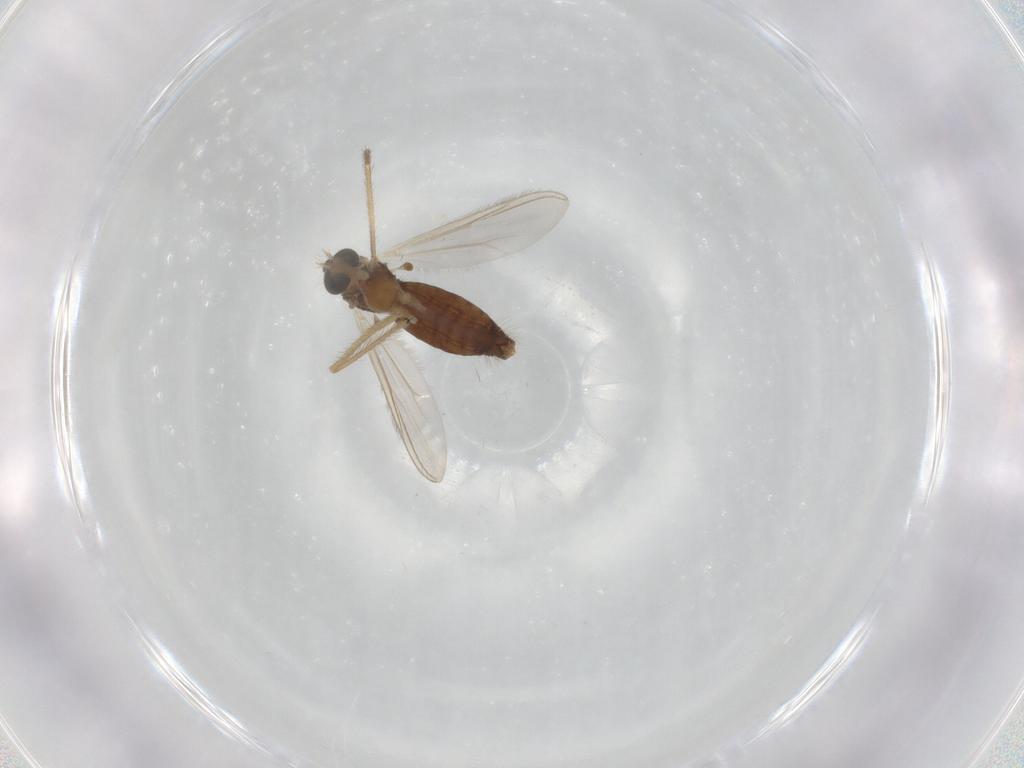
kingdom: Animalia
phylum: Arthropoda
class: Insecta
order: Diptera
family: Chironomidae
